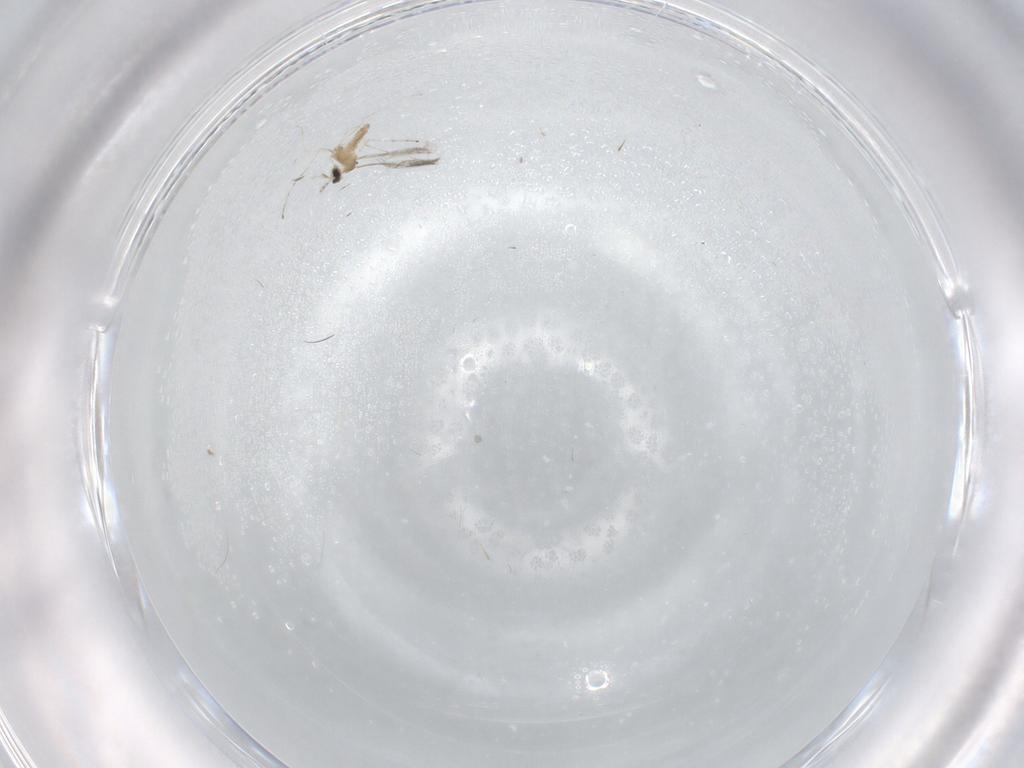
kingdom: Animalia
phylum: Arthropoda
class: Insecta
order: Diptera
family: Cecidomyiidae
